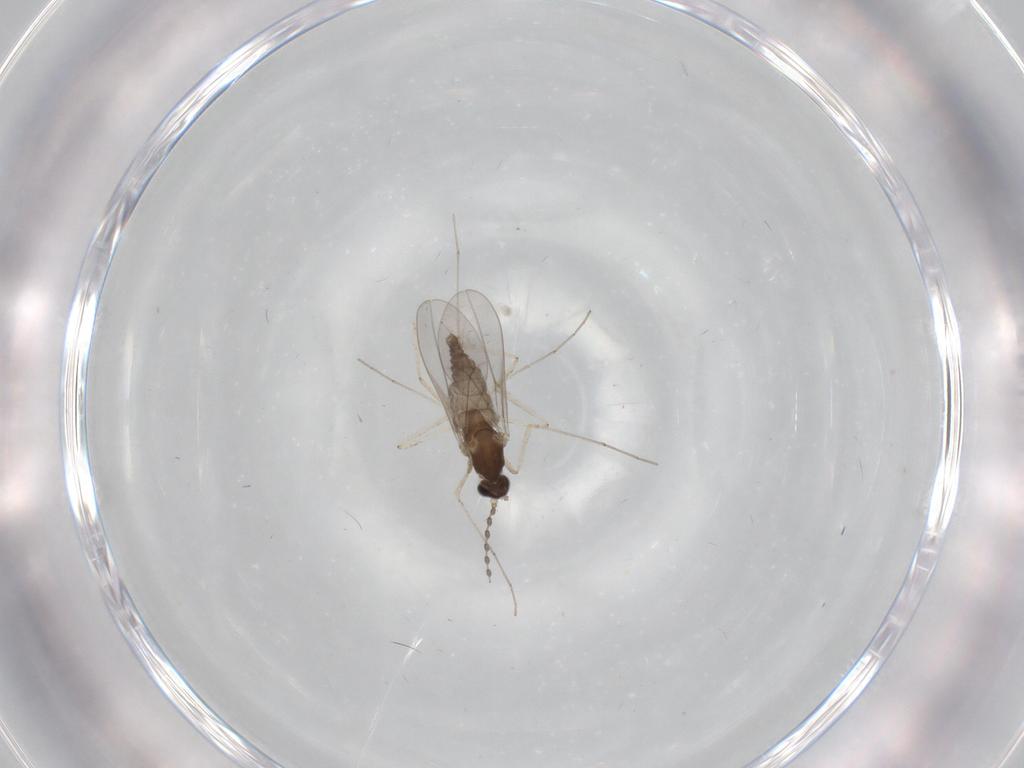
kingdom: Animalia
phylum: Arthropoda
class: Insecta
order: Diptera
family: Cecidomyiidae
